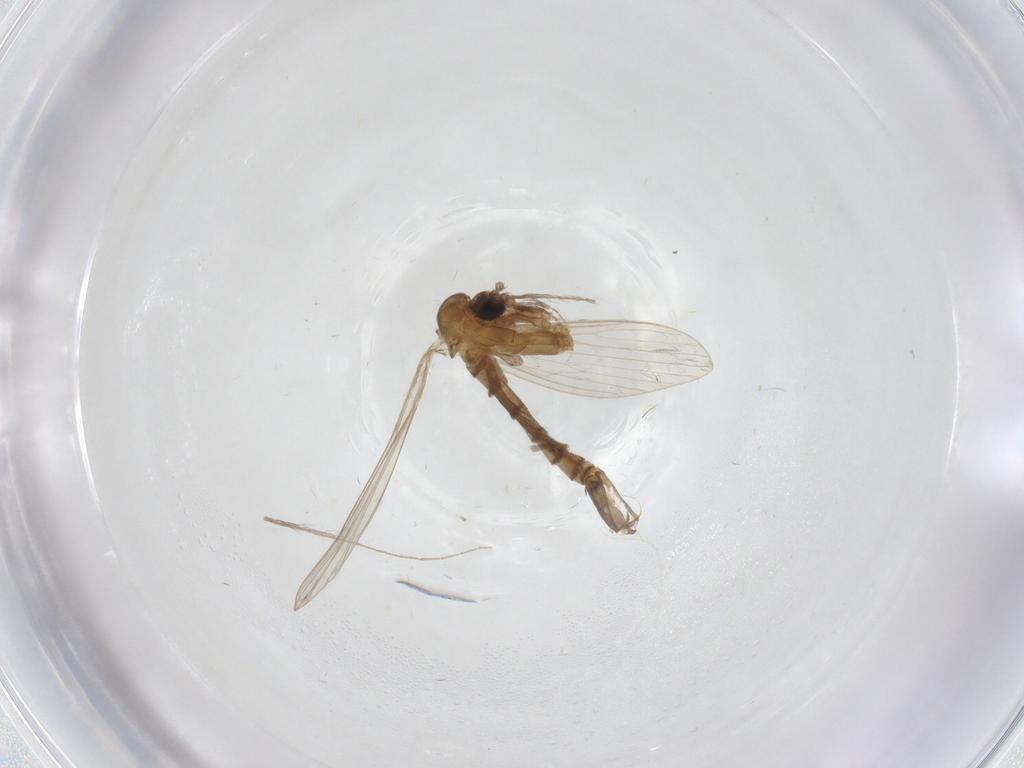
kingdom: Animalia
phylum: Arthropoda
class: Insecta
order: Diptera
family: Psychodidae
